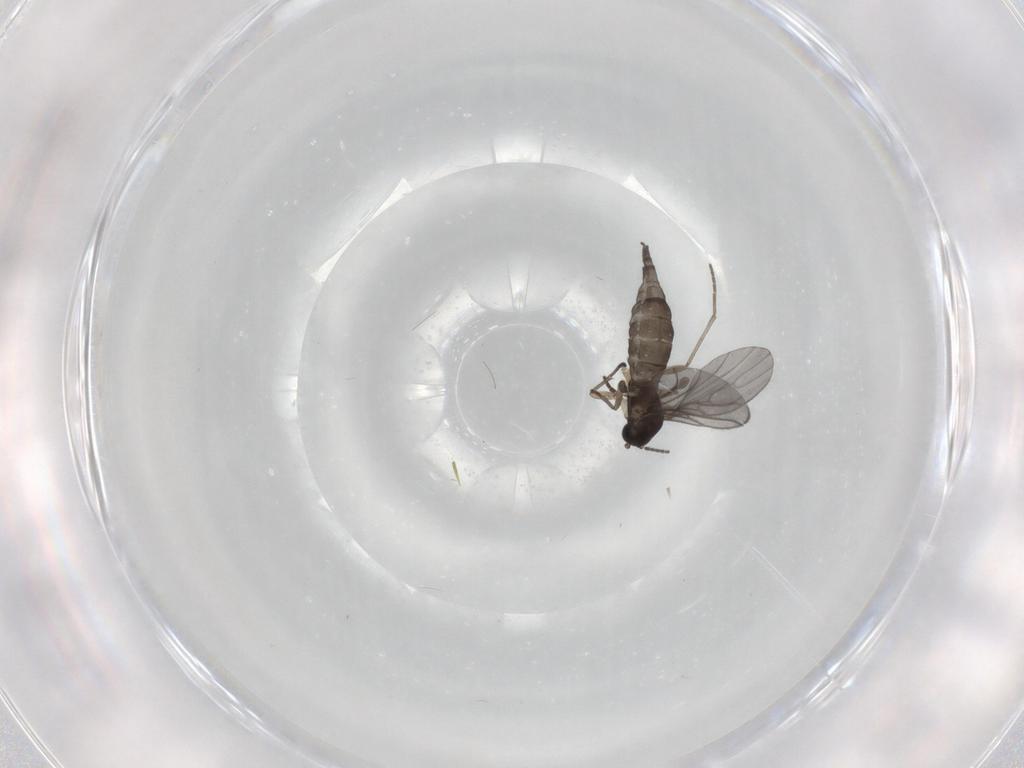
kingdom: Animalia
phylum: Arthropoda
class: Insecta
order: Diptera
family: Sciaridae
